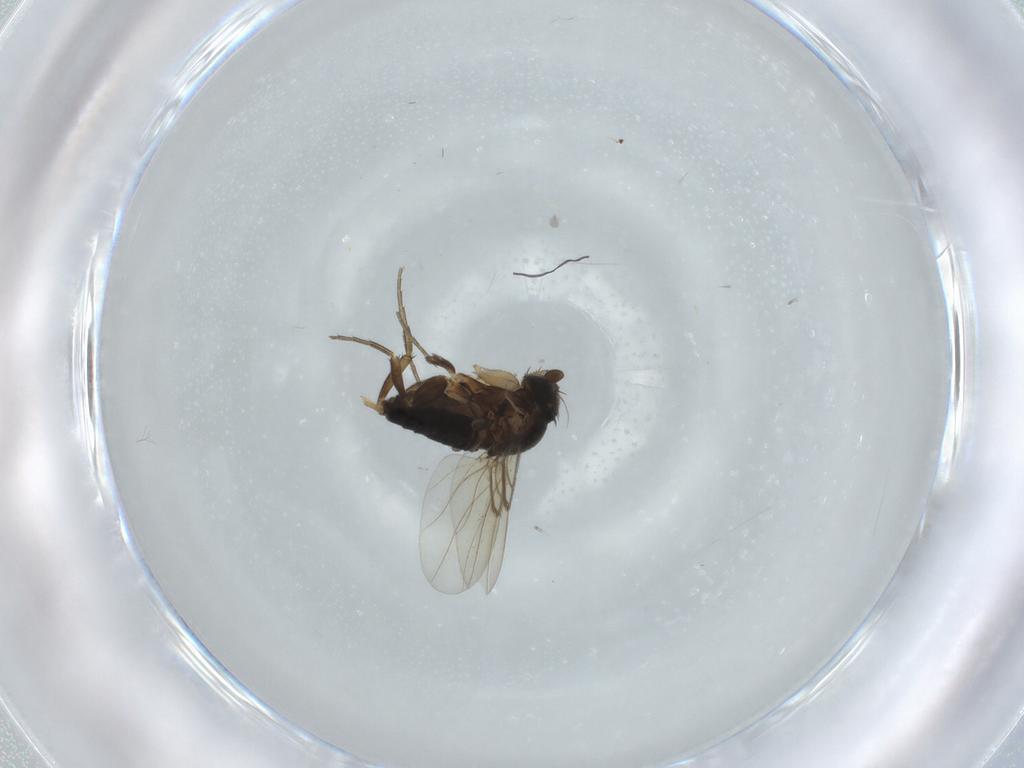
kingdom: Animalia
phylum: Arthropoda
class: Insecta
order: Diptera
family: Cecidomyiidae
